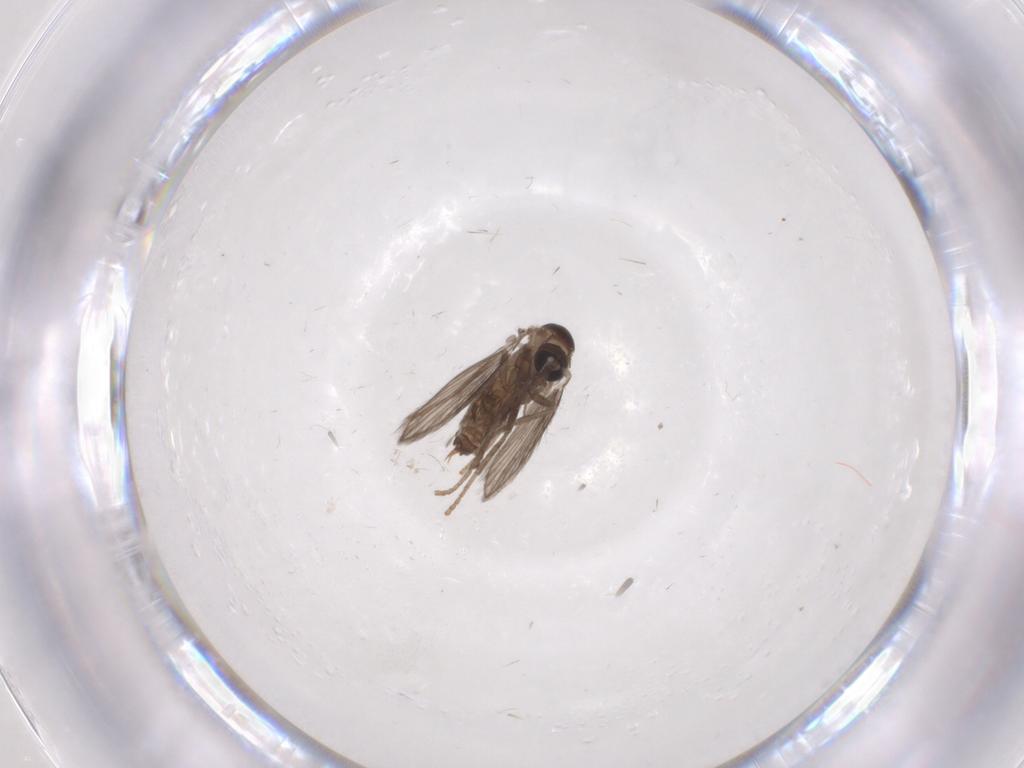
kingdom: Animalia
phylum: Arthropoda
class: Insecta
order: Diptera
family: Psychodidae
